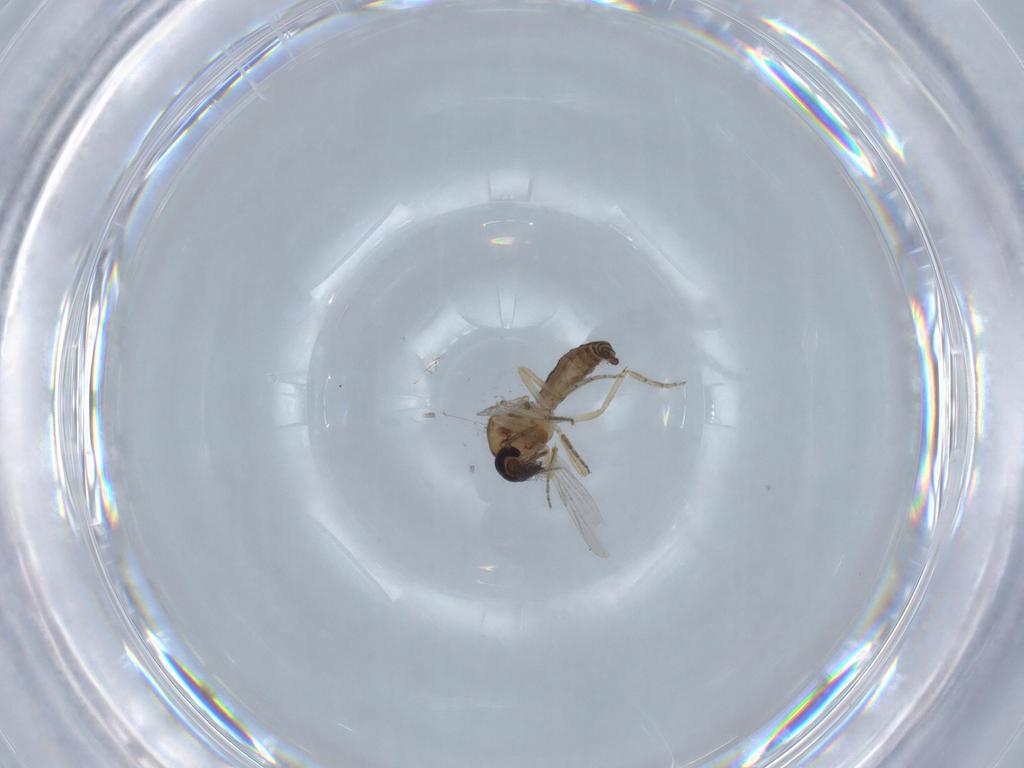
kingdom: Animalia
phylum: Arthropoda
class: Insecta
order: Diptera
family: Ceratopogonidae
